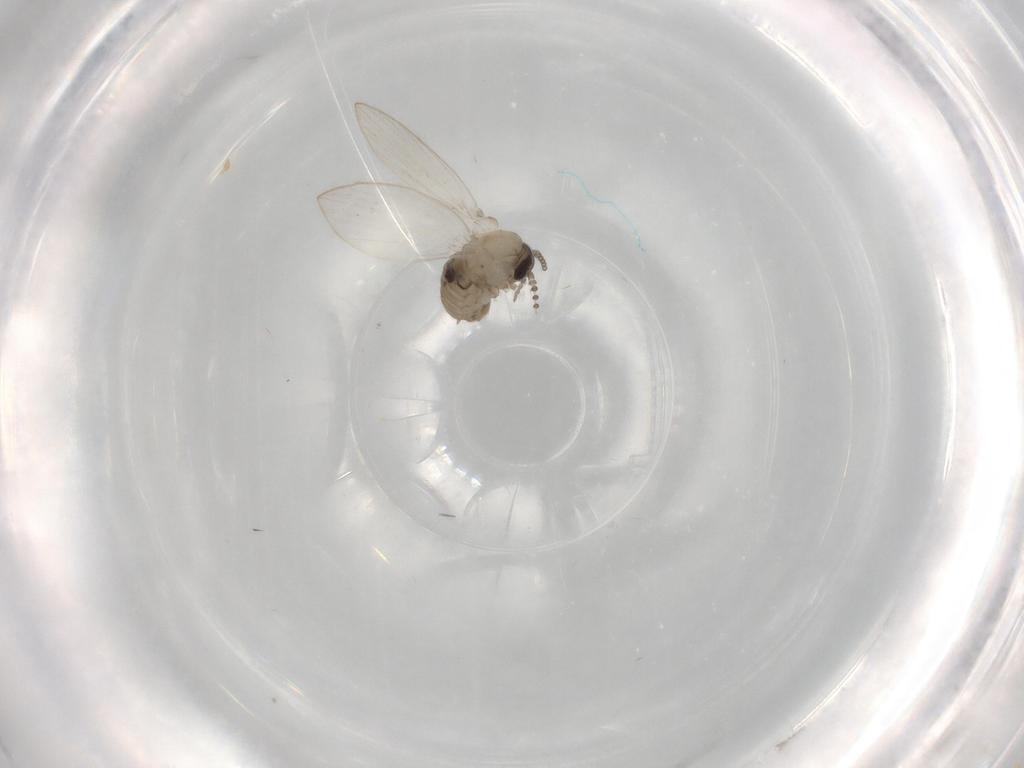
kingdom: Animalia
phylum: Arthropoda
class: Insecta
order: Diptera
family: Psychodidae
